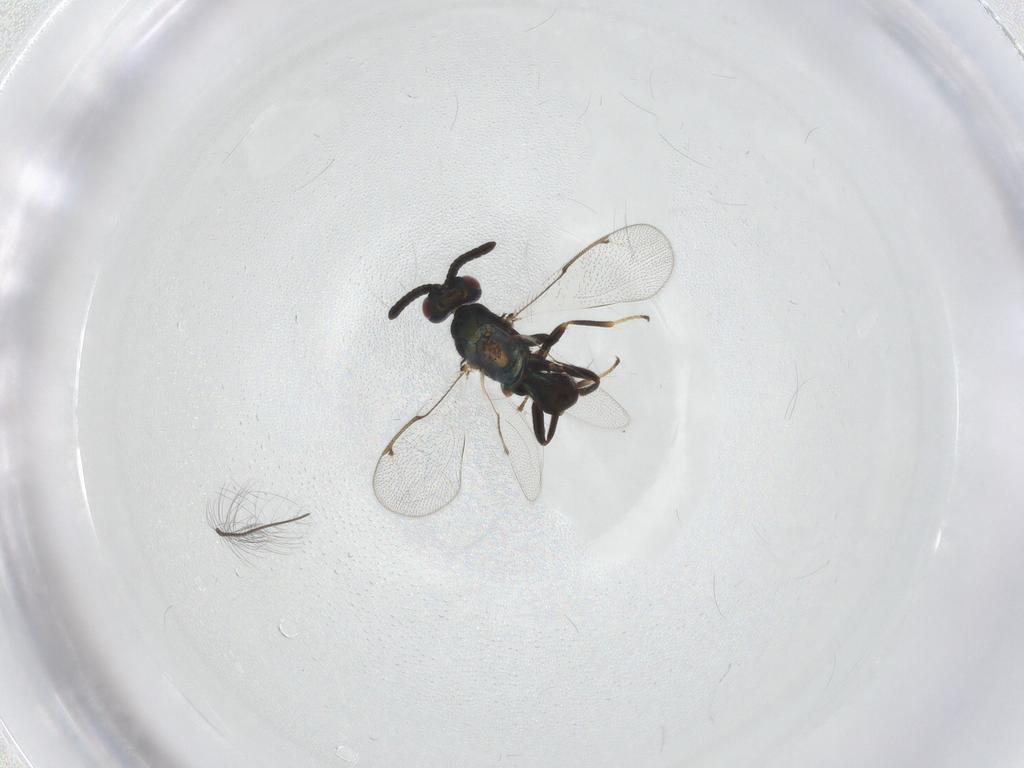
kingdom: Animalia
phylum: Arthropoda
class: Insecta
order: Hymenoptera
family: Torymidae
